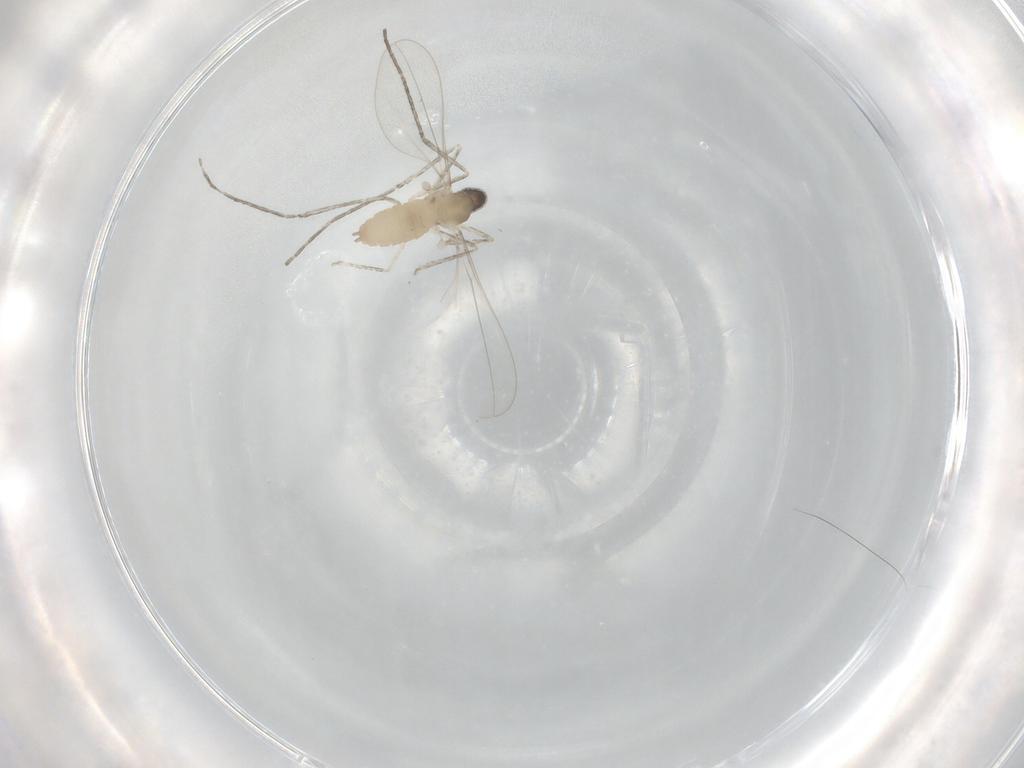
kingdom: Animalia
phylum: Arthropoda
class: Insecta
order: Diptera
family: Cecidomyiidae
